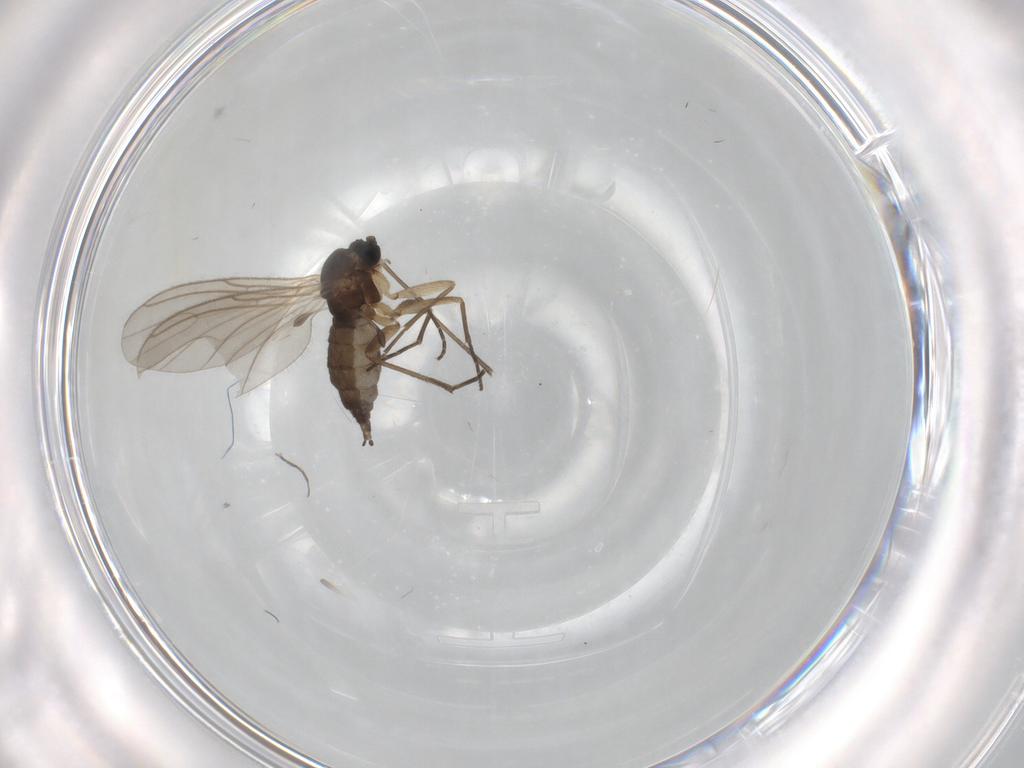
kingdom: Animalia
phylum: Arthropoda
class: Insecta
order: Diptera
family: Sciaridae
